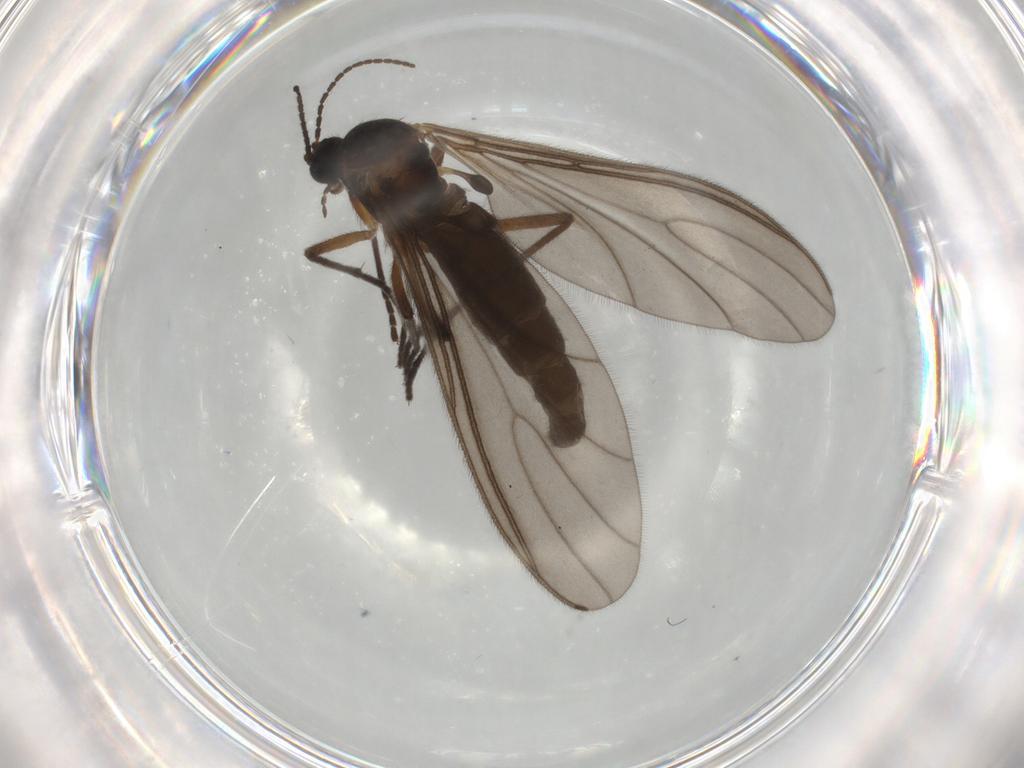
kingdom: Animalia
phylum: Arthropoda
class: Insecta
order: Diptera
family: Sciaridae
